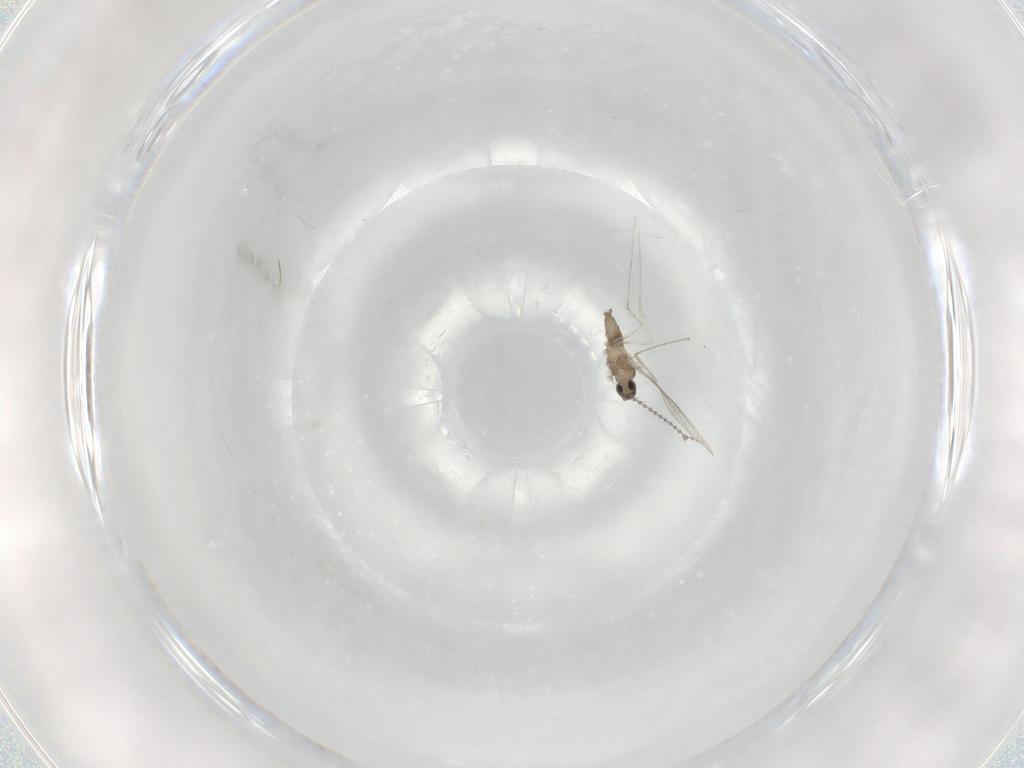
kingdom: Animalia
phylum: Arthropoda
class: Insecta
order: Diptera
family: Cecidomyiidae
